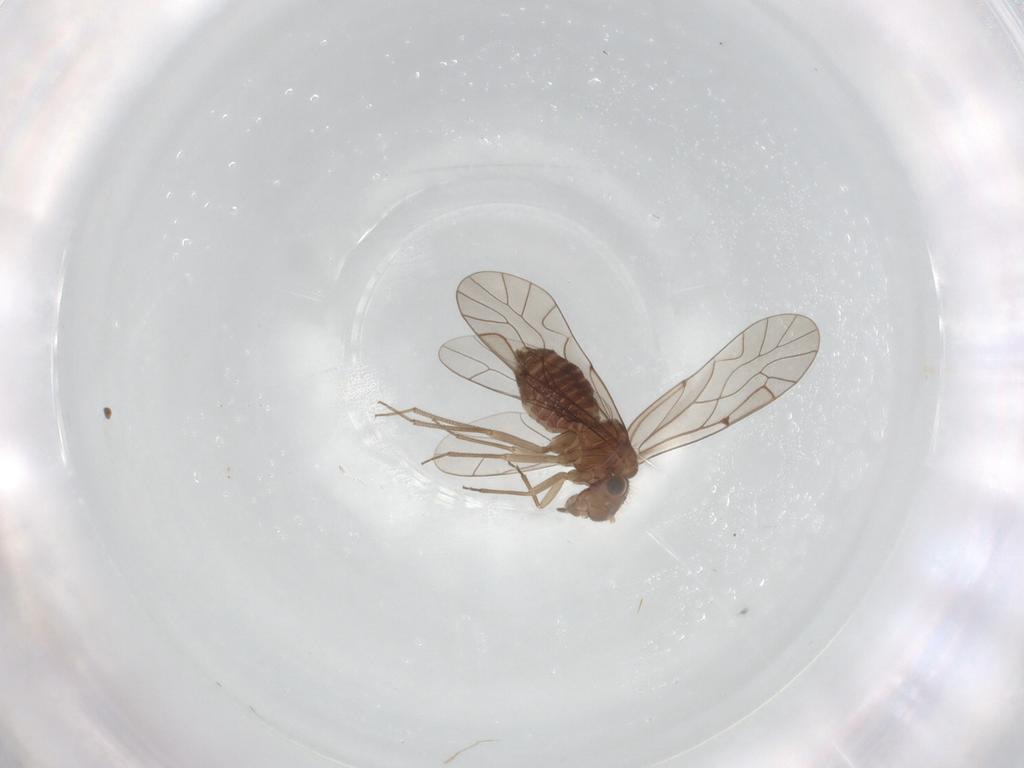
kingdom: Animalia
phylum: Arthropoda
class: Insecta
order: Psocodea
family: Lachesillidae
